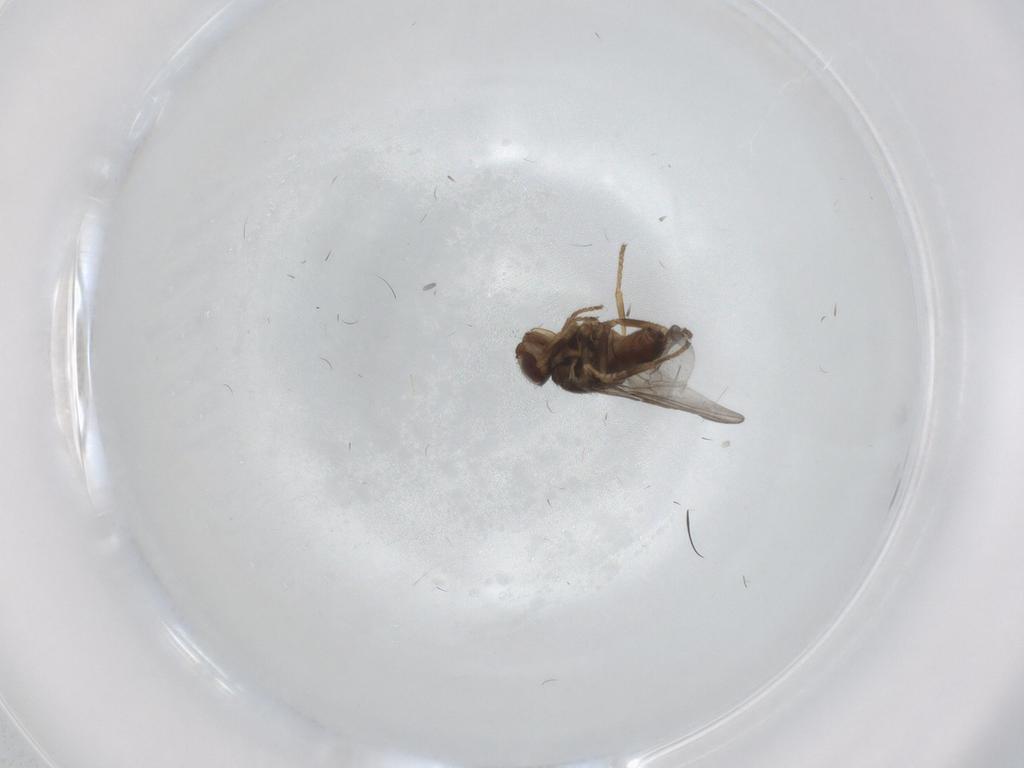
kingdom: Animalia
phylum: Arthropoda
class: Insecta
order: Diptera
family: Chloropidae
